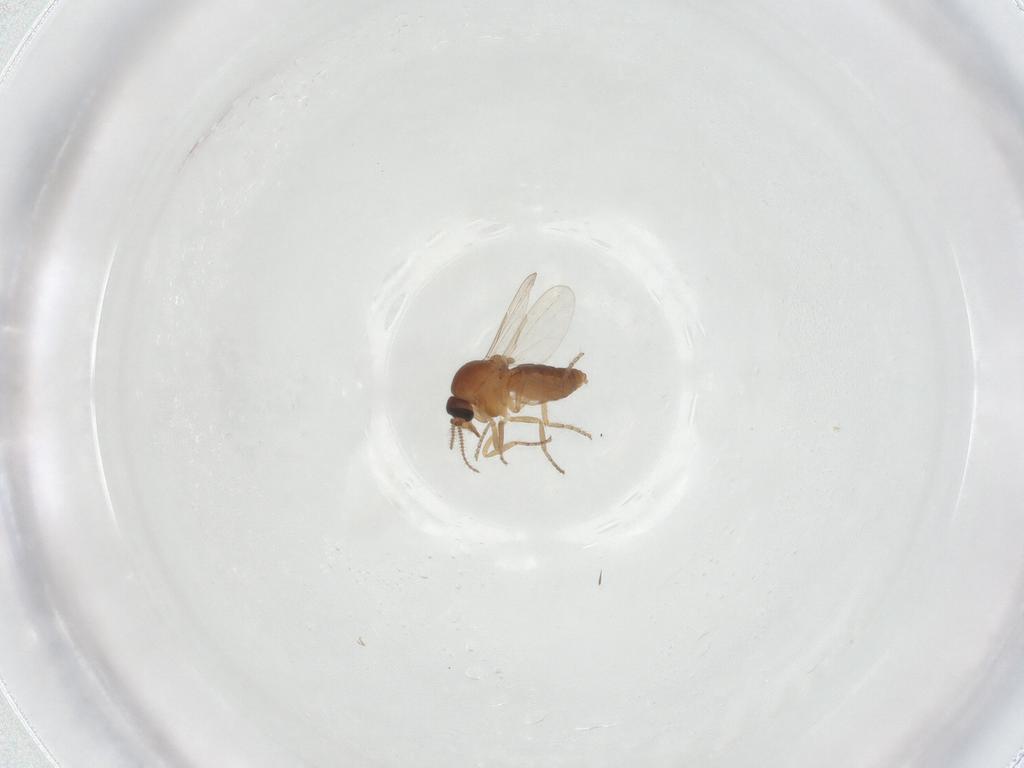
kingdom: Animalia
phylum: Arthropoda
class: Insecta
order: Diptera
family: Ceratopogonidae
